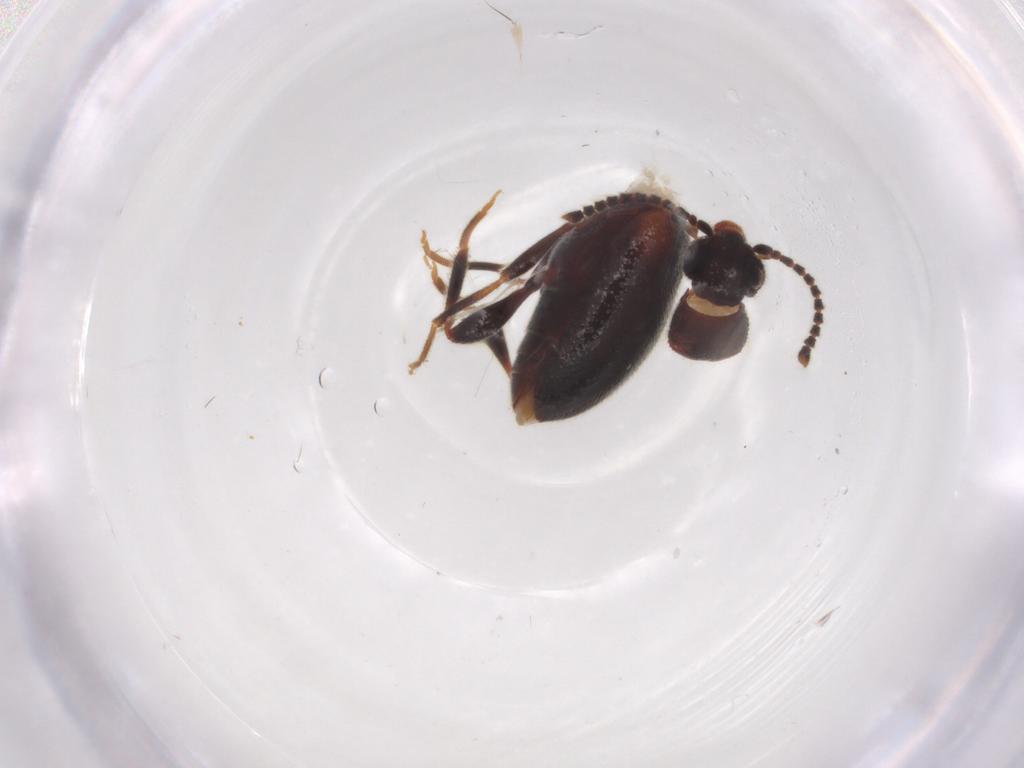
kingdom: Animalia
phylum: Arthropoda
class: Insecta
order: Coleoptera
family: Aderidae
